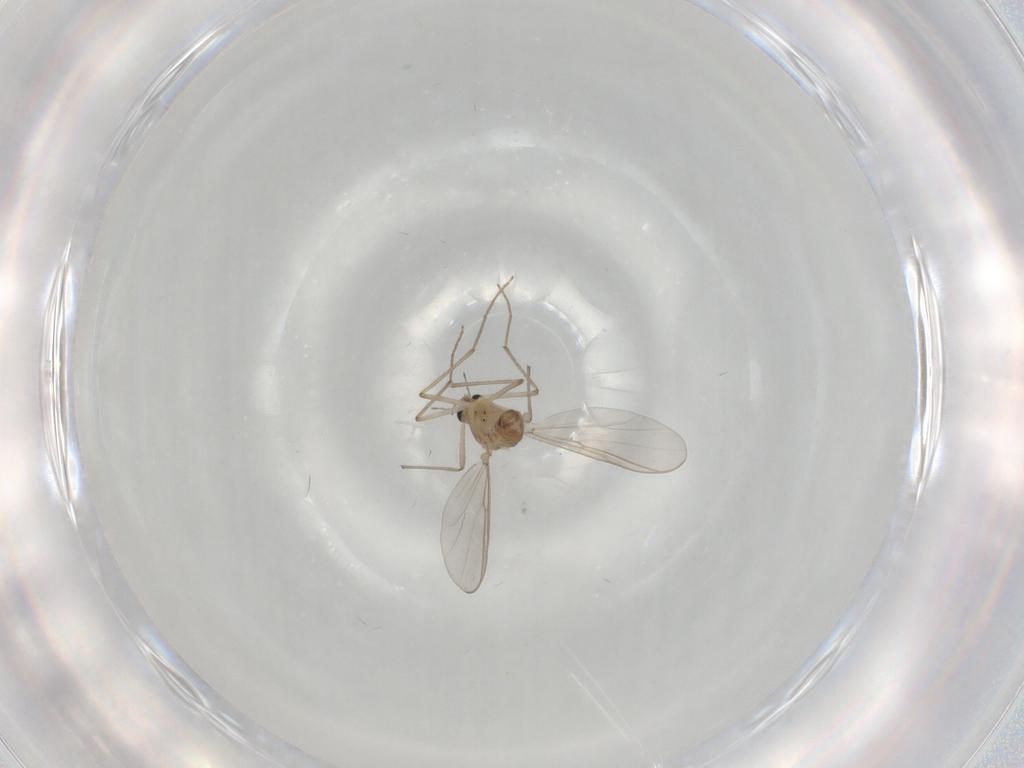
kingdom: Animalia
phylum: Arthropoda
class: Insecta
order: Diptera
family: Chironomidae
